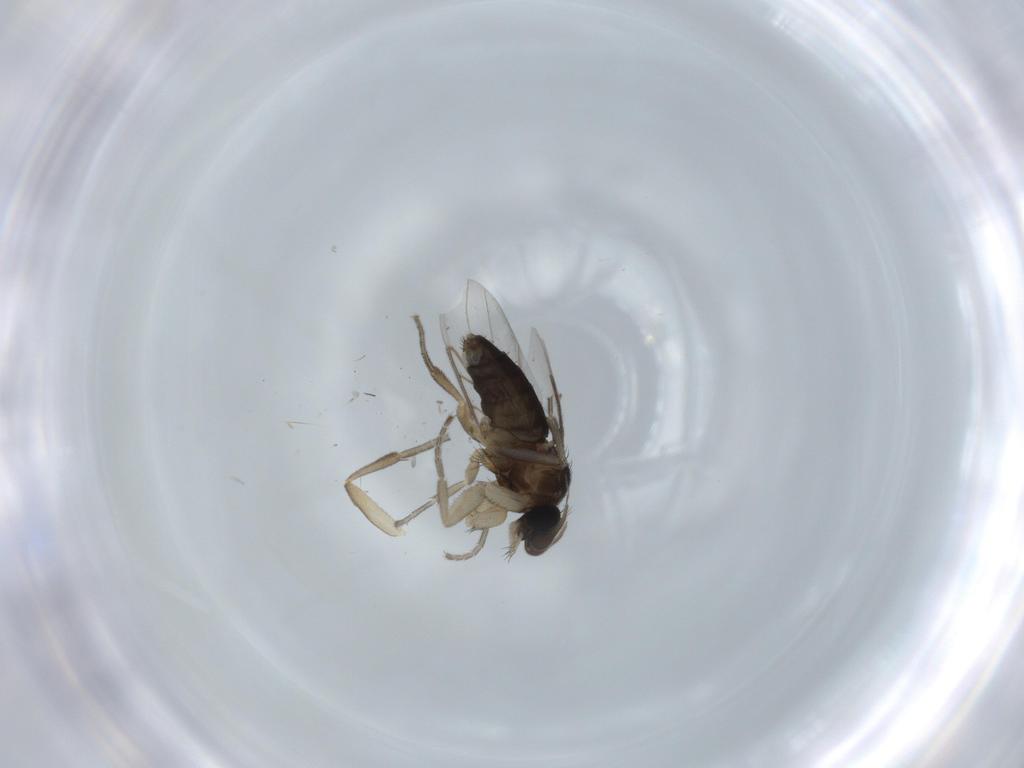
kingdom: Animalia
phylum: Arthropoda
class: Insecta
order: Diptera
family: Phoridae
